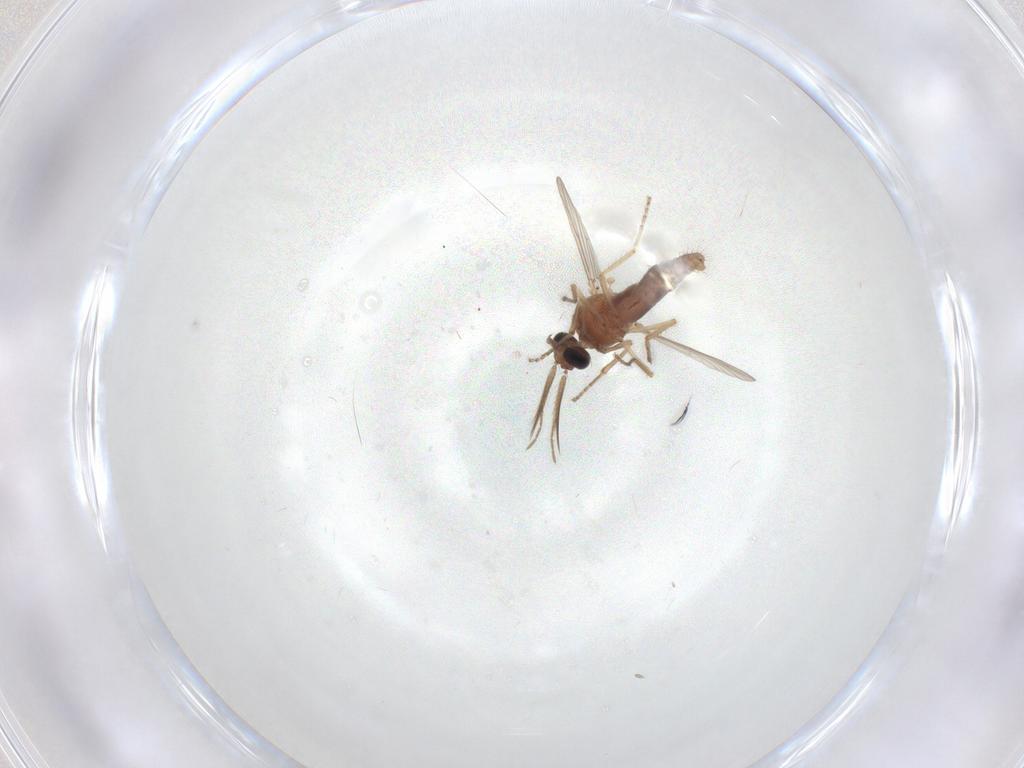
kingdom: Animalia
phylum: Arthropoda
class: Insecta
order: Diptera
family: Ceratopogonidae
